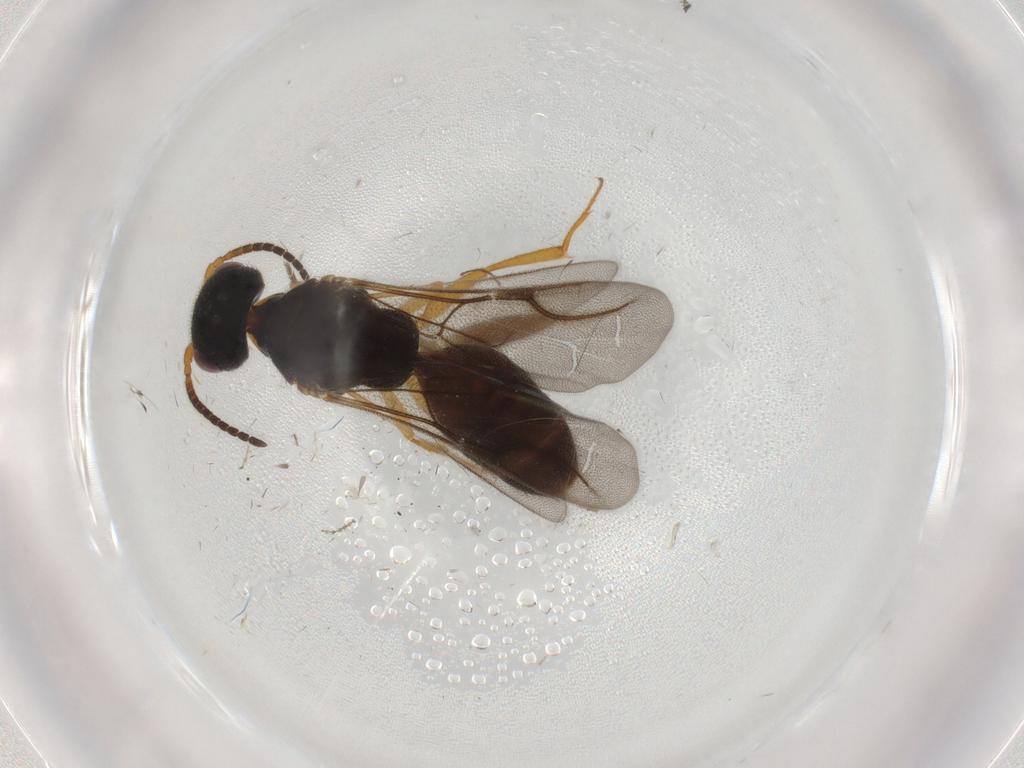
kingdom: Animalia
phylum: Arthropoda
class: Insecta
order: Hymenoptera
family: Bethylidae
